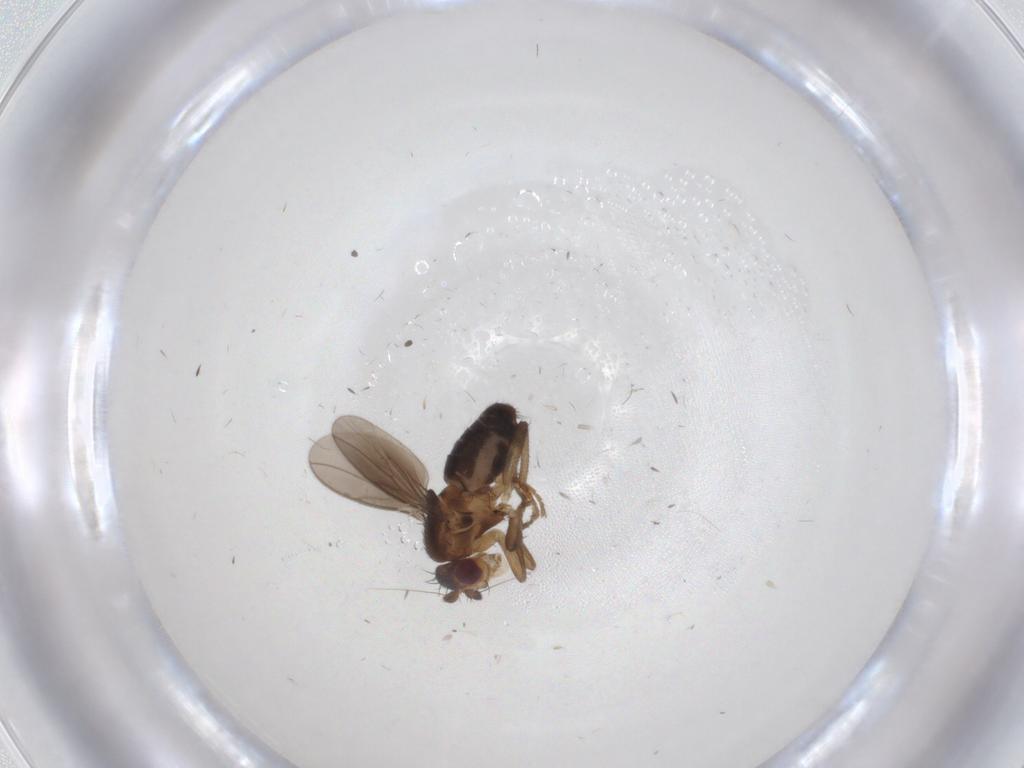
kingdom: Animalia
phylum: Arthropoda
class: Insecta
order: Diptera
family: Sphaeroceridae
